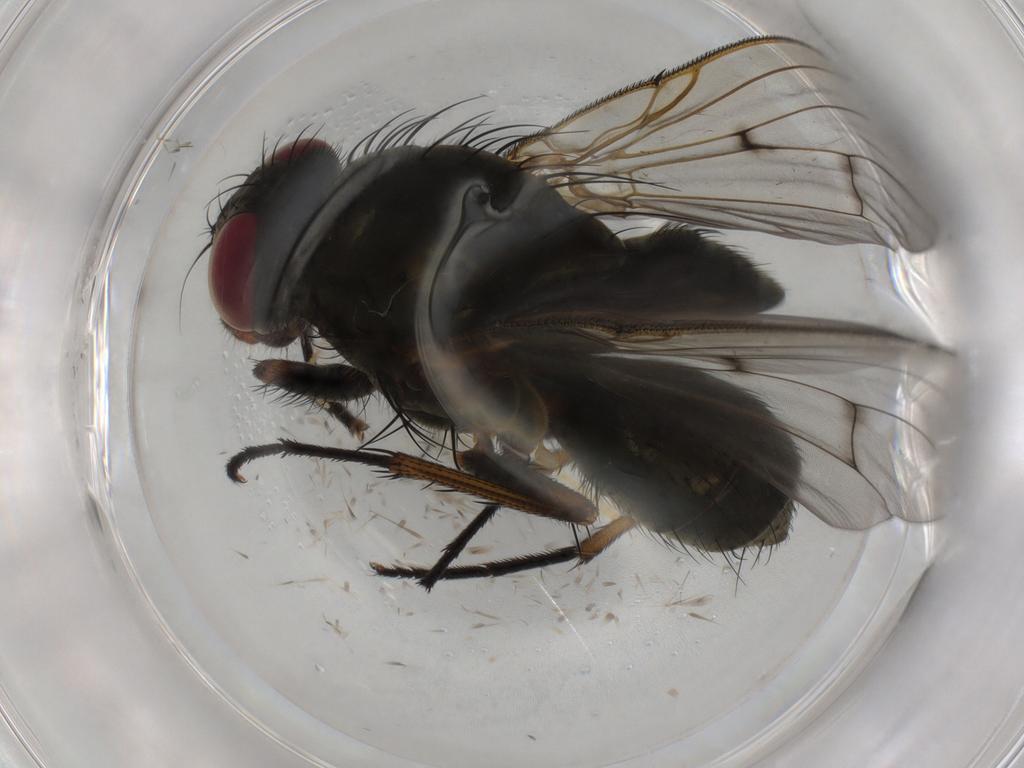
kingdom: Animalia
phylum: Arthropoda
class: Insecta
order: Diptera
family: Muscidae
